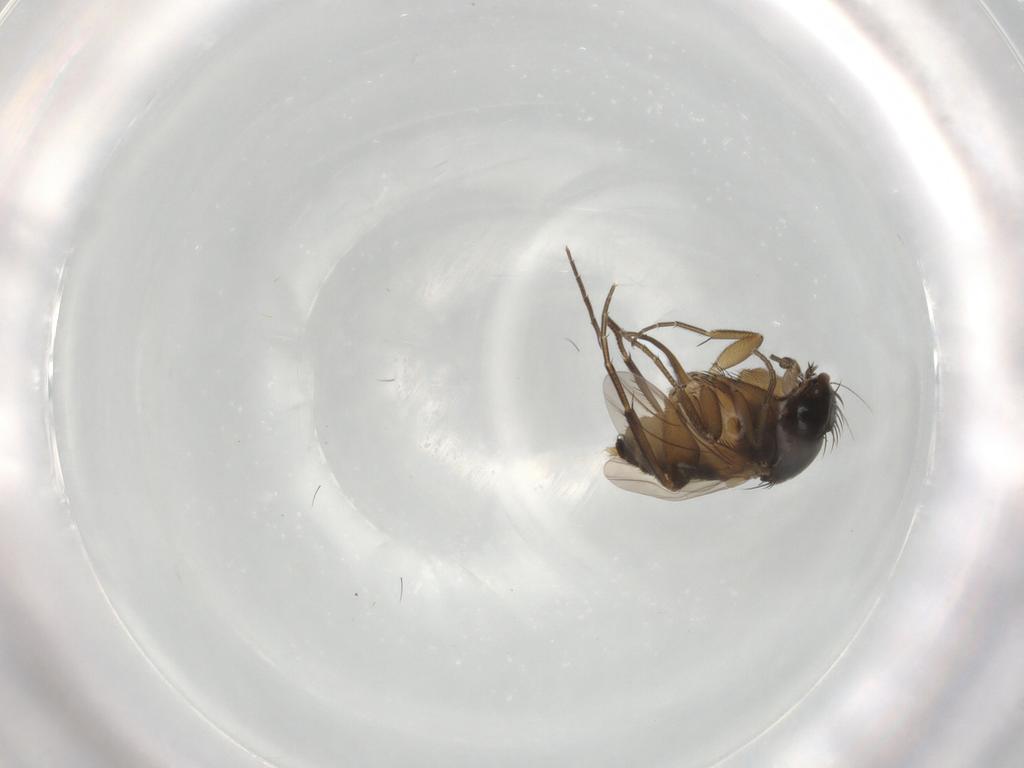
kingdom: Animalia
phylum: Arthropoda
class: Insecta
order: Diptera
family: Phoridae
